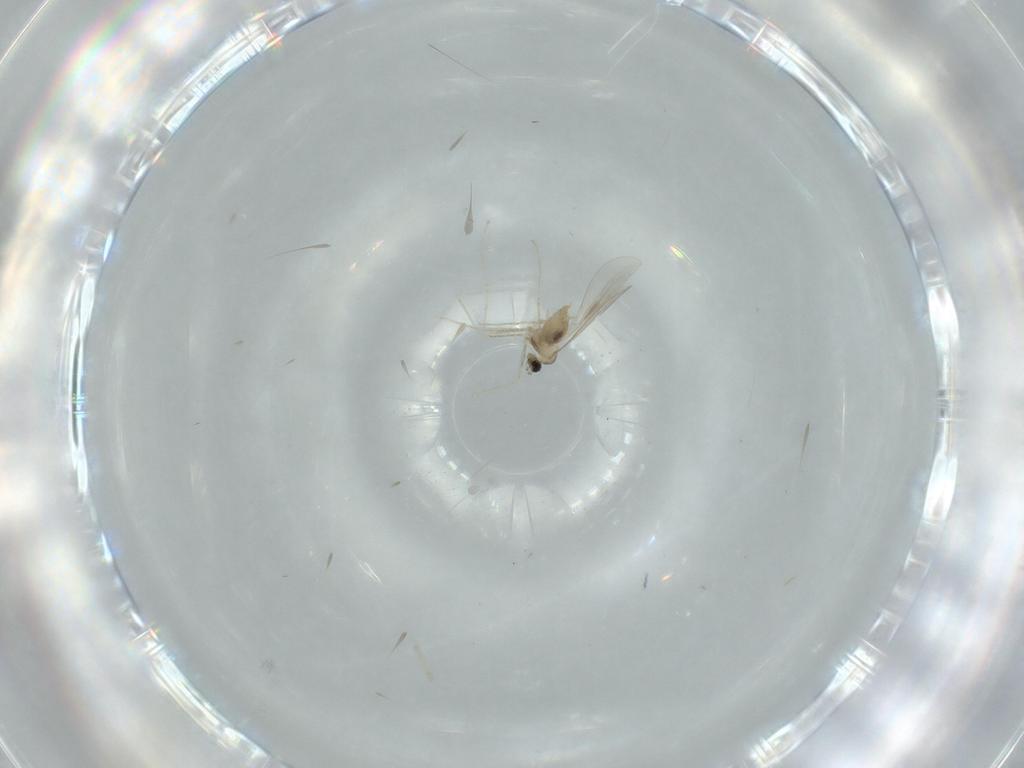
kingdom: Animalia
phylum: Arthropoda
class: Insecta
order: Diptera
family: Cecidomyiidae
